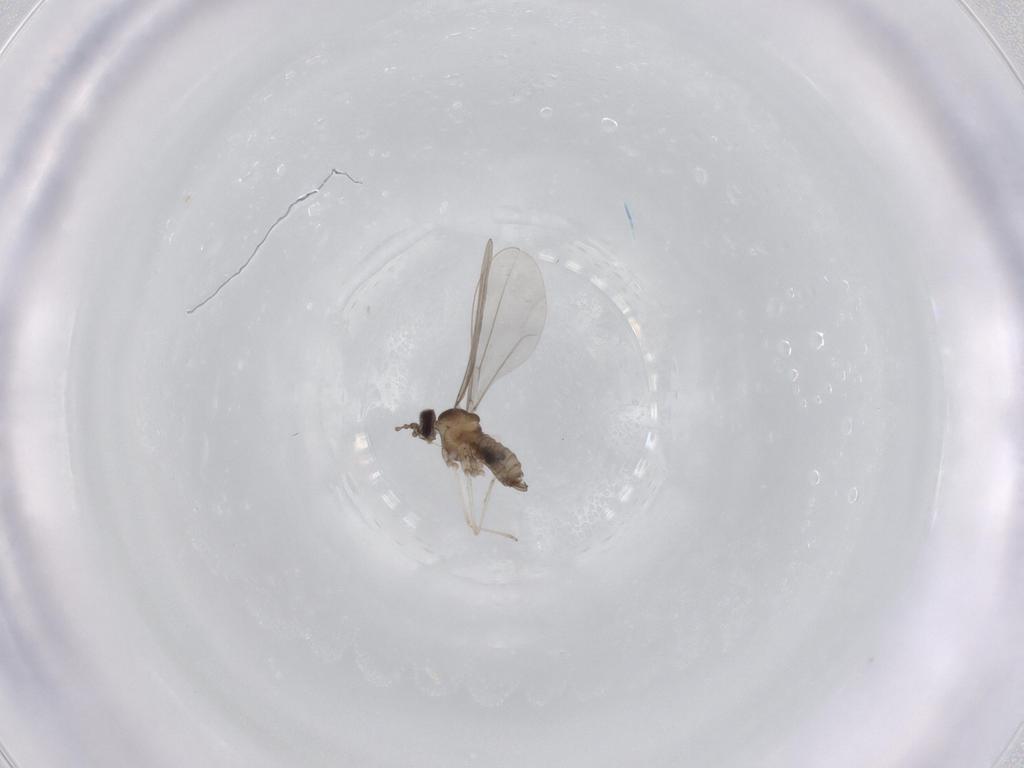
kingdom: Animalia
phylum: Arthropoda
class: Insecta
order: Diptera
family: Cecidomyiidae
